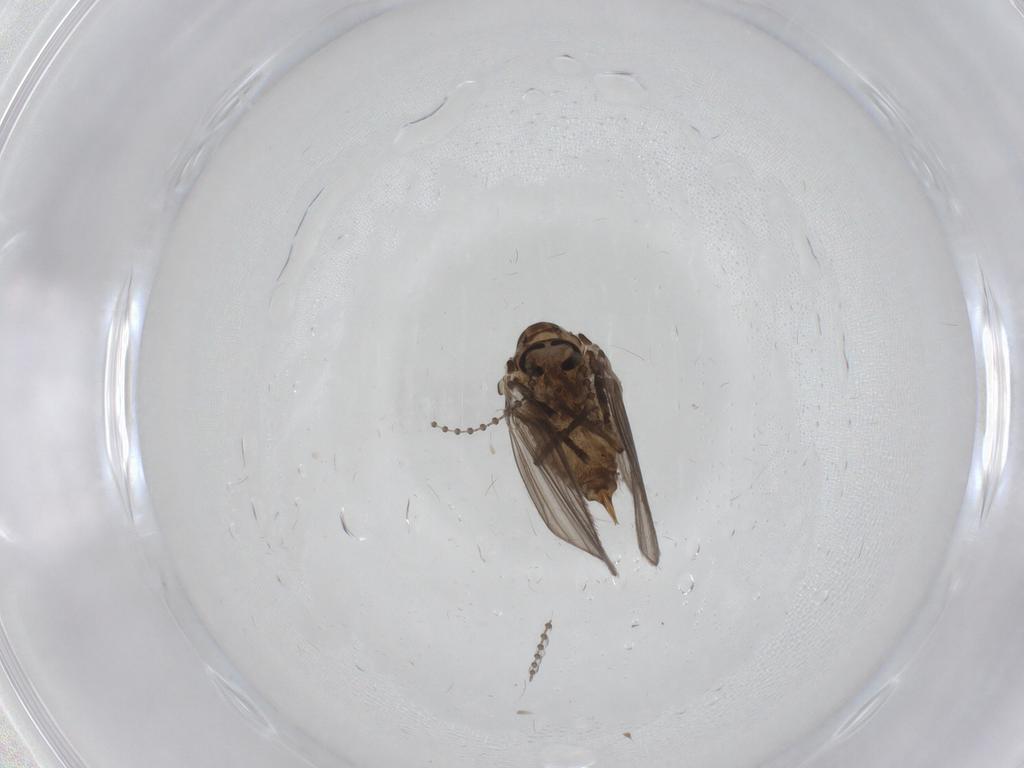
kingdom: Animalia
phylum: Arthropoda
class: Insecta
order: Diptera
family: Psychodidae
